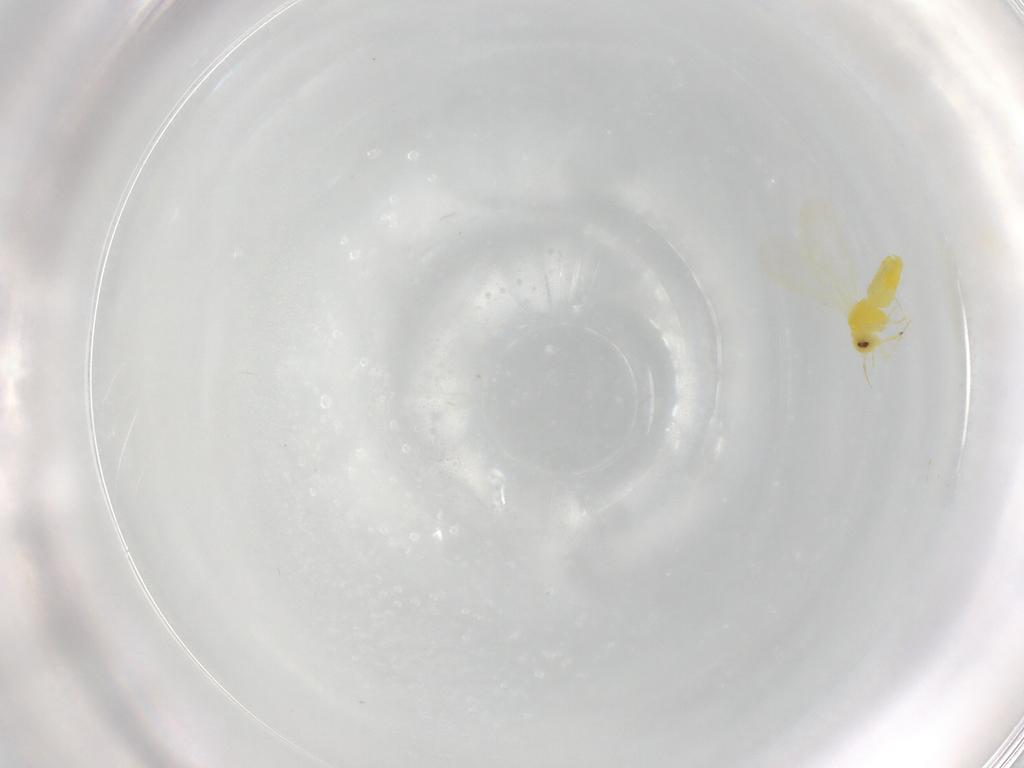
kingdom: Animalia
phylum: Arthropoda
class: Insecta
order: Hemiptera
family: Aleyrodidae
